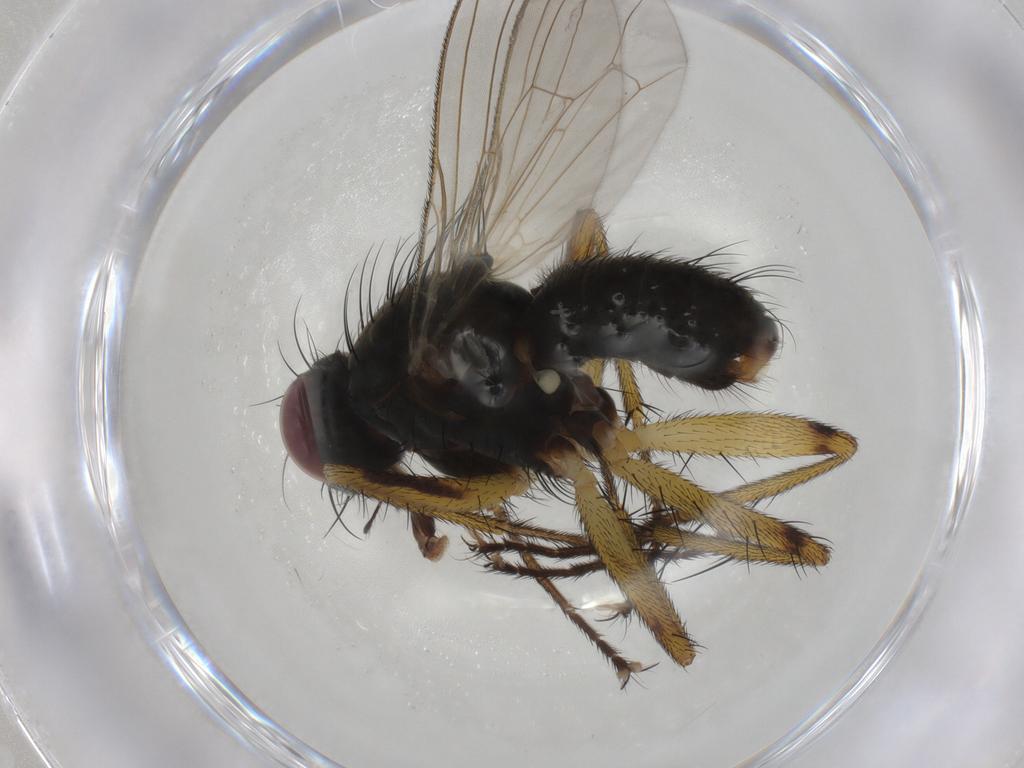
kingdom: Animalia
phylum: Arthropoda
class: Insecta
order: Diptera
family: Muscidae
